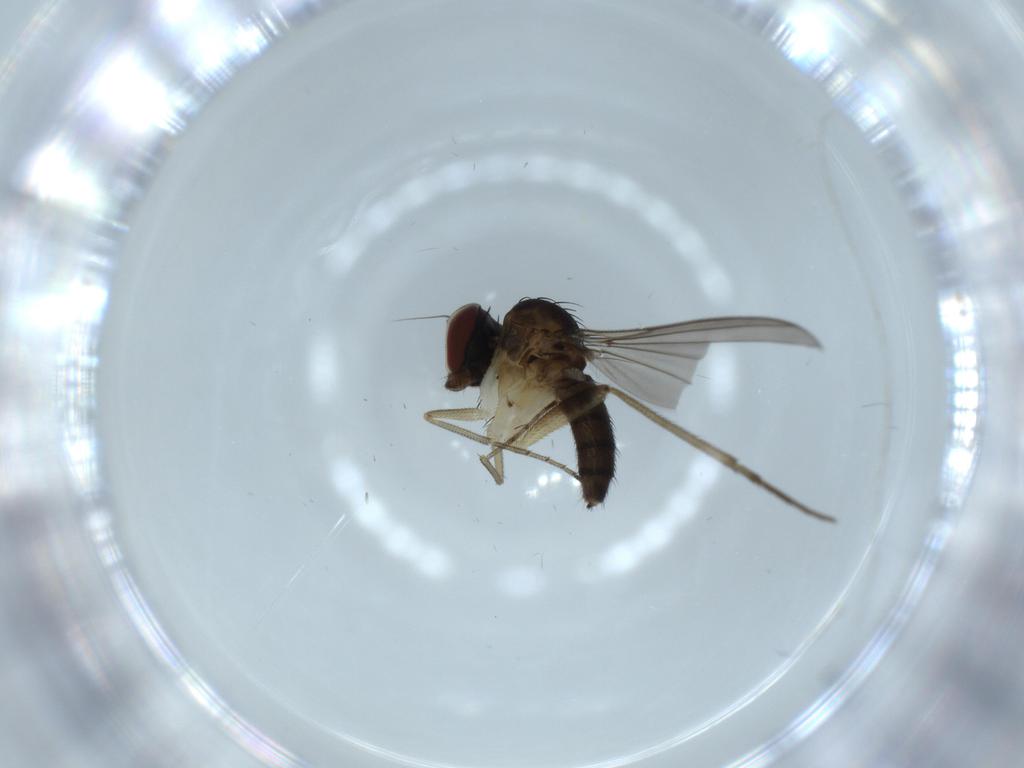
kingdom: Animalia
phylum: Arthropoda
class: Insecta
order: Diptera
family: Dolichopodidae
